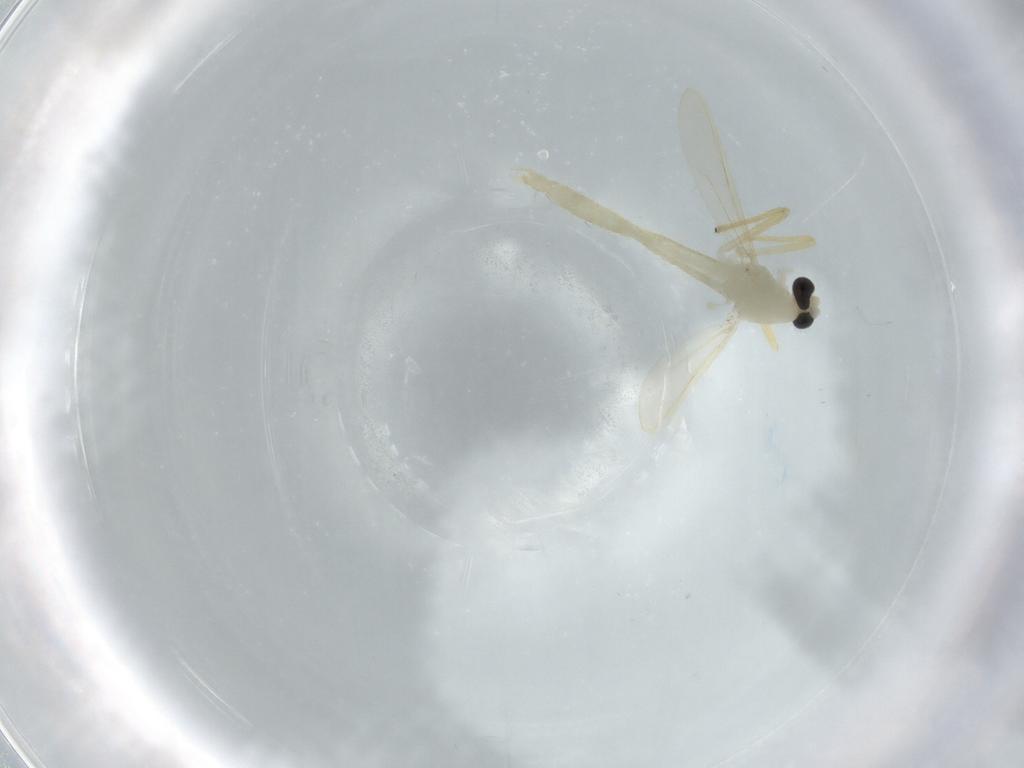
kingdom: Animalia
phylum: Arthropoda
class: Insecta
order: Diptera
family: Chironomidae
